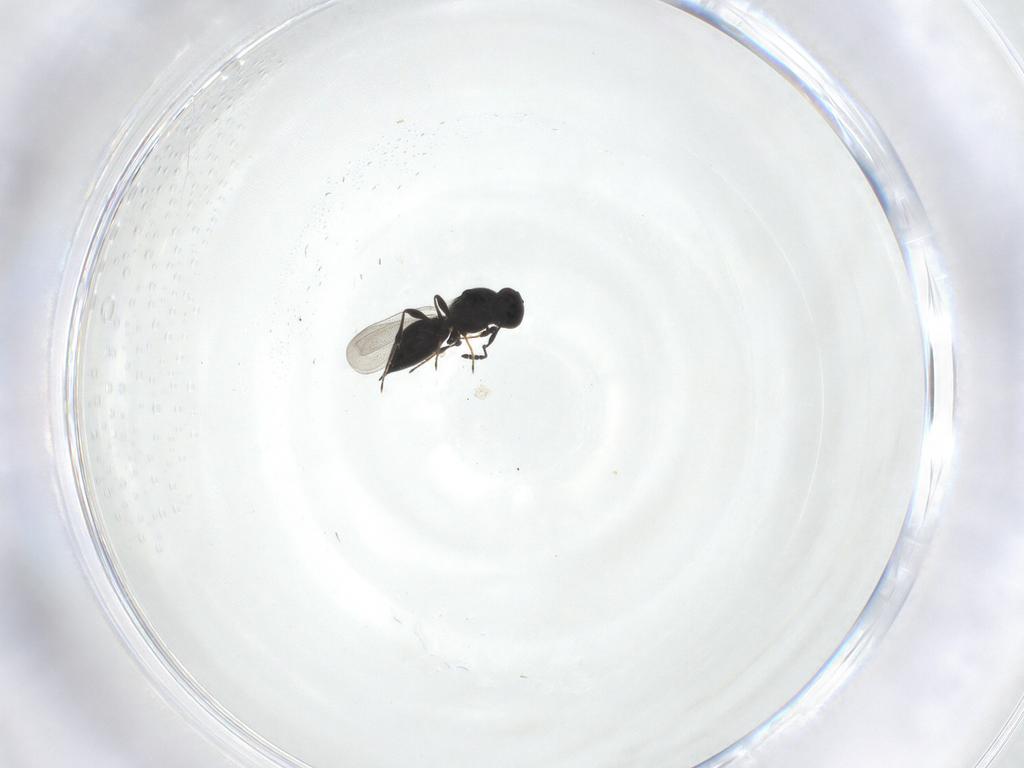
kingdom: Animalia
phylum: Arthropoda
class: Insecta
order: Hymenoptera
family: Platygastridae
